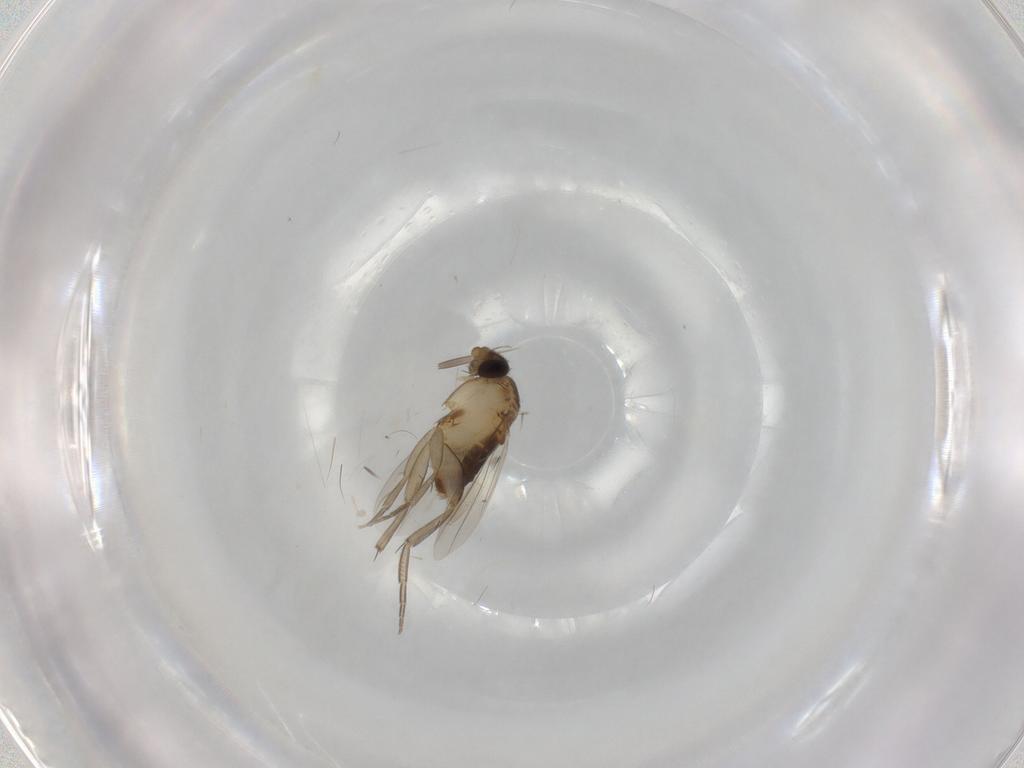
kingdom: Animalia
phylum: Arthropoda
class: Insecta
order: Diptera
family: Phoridae
